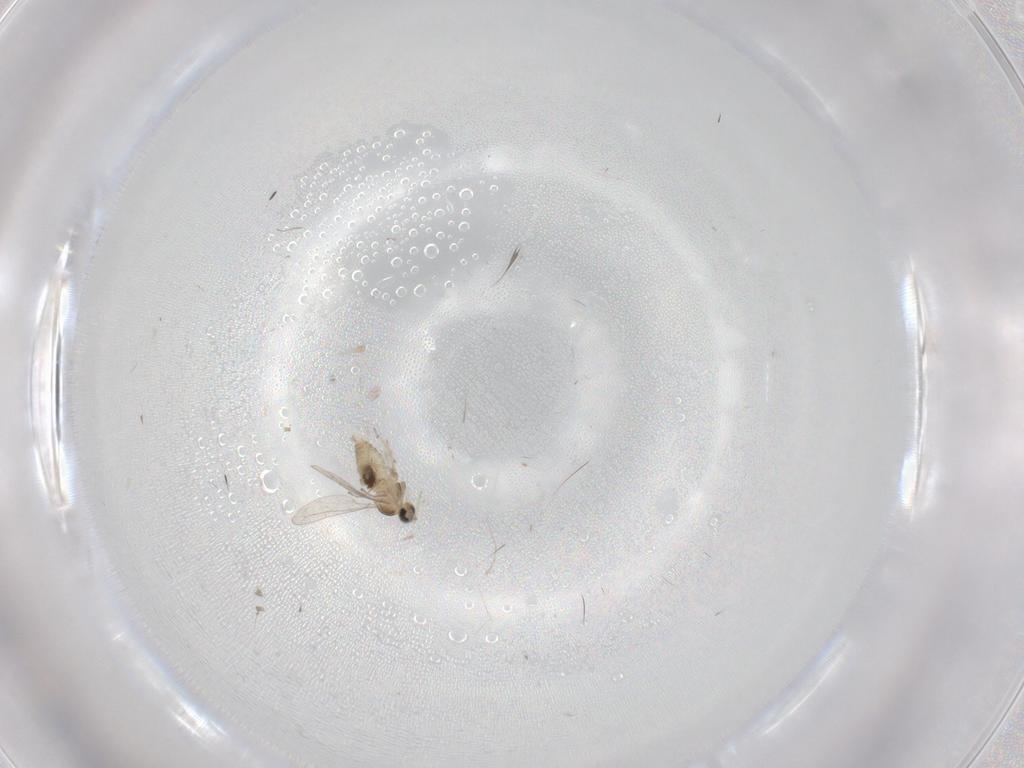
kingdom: Animalia
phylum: Arthropoda
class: Insecta
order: Diptera
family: Cecidomyiidae
